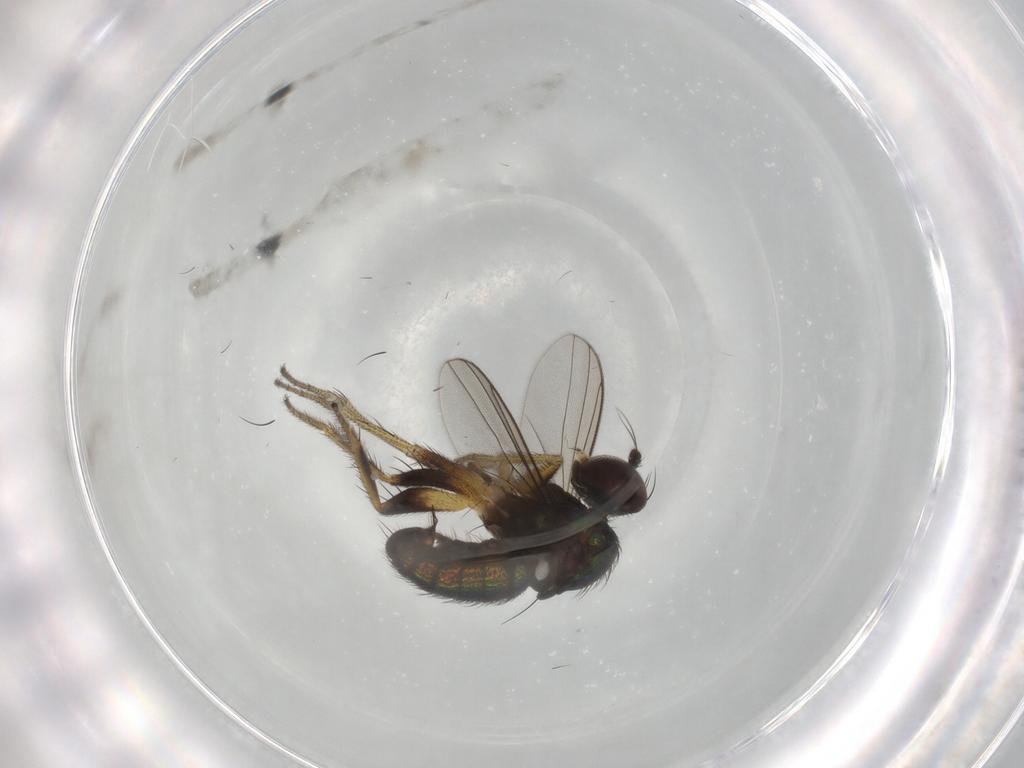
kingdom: Animalia
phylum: Arthropoda
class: Insecta
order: Diptera
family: Dolichopodidae
